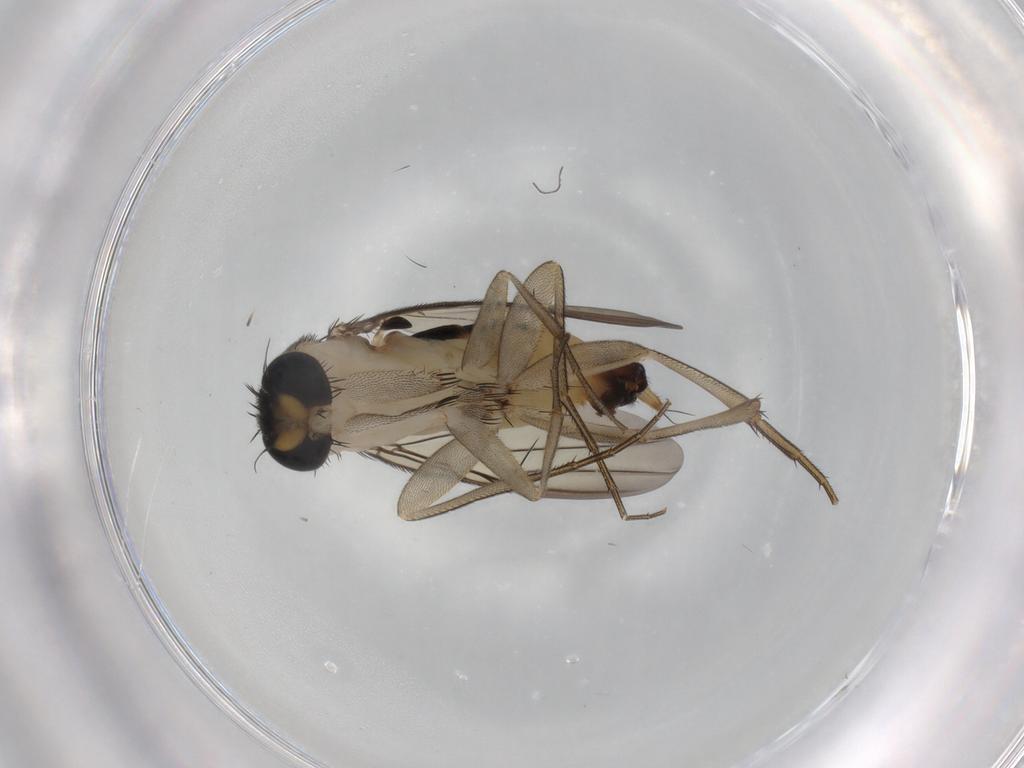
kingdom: Animalia
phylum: Arthropoda
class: Insecta
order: Diptera
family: Phoridae
